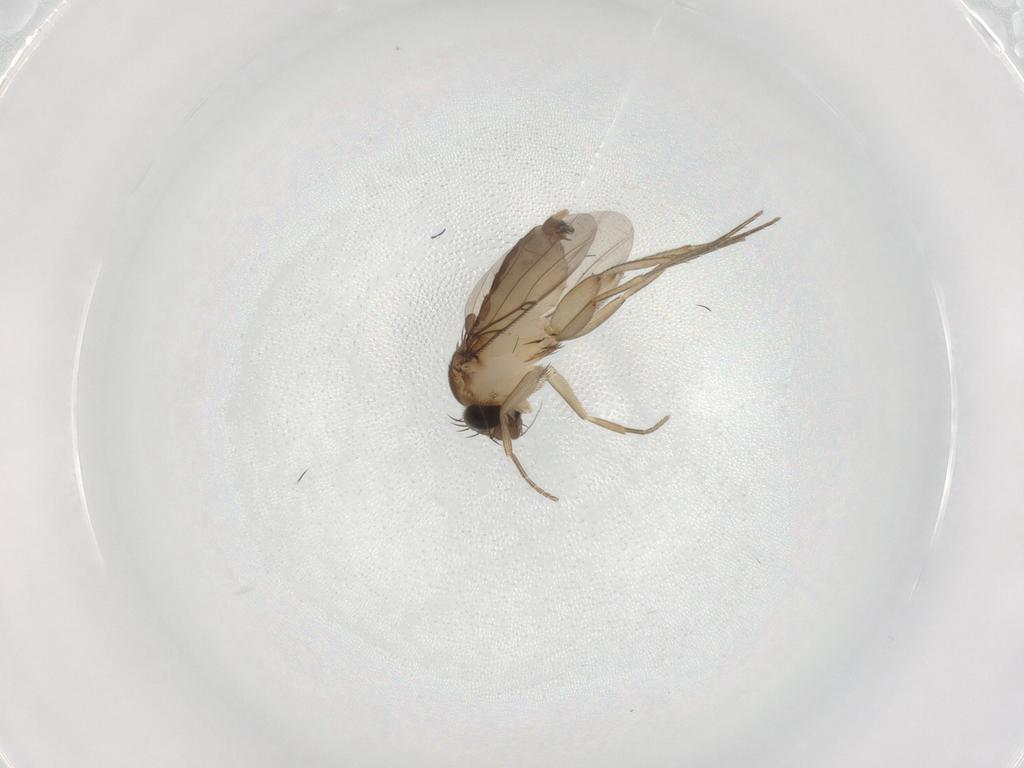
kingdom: Animalia
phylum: Arthropoda
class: Insecta
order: Diptera
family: Phoridae
